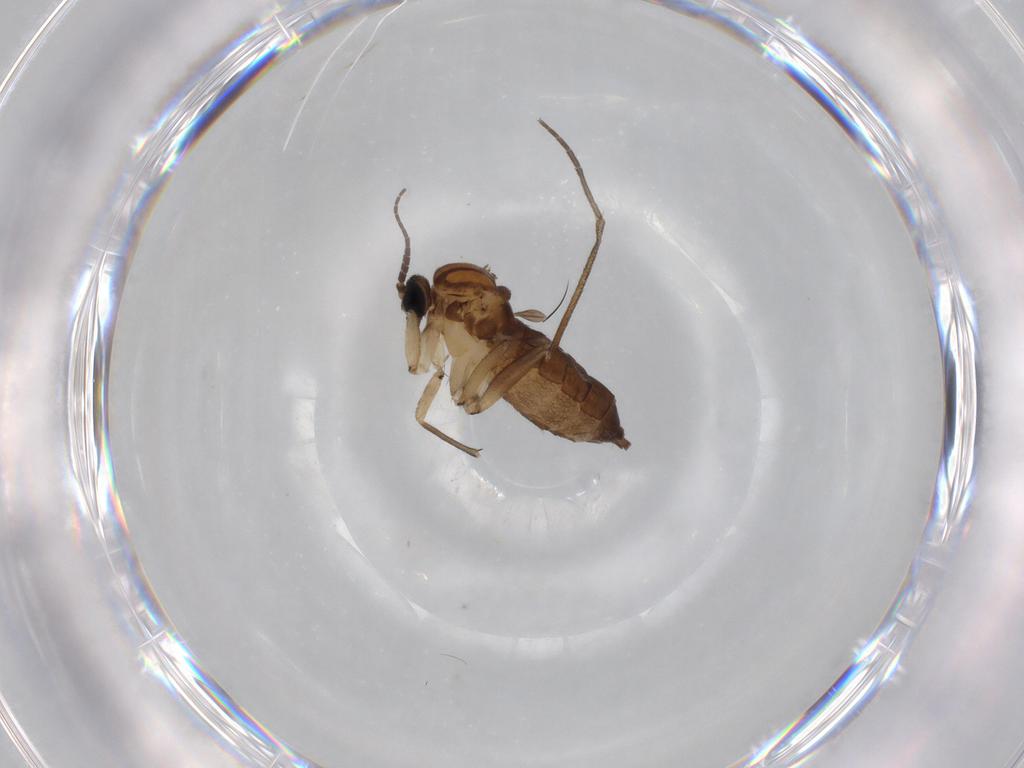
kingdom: Animalia
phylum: Arthropoda
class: Insecta
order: Diptera
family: Sciaridae
